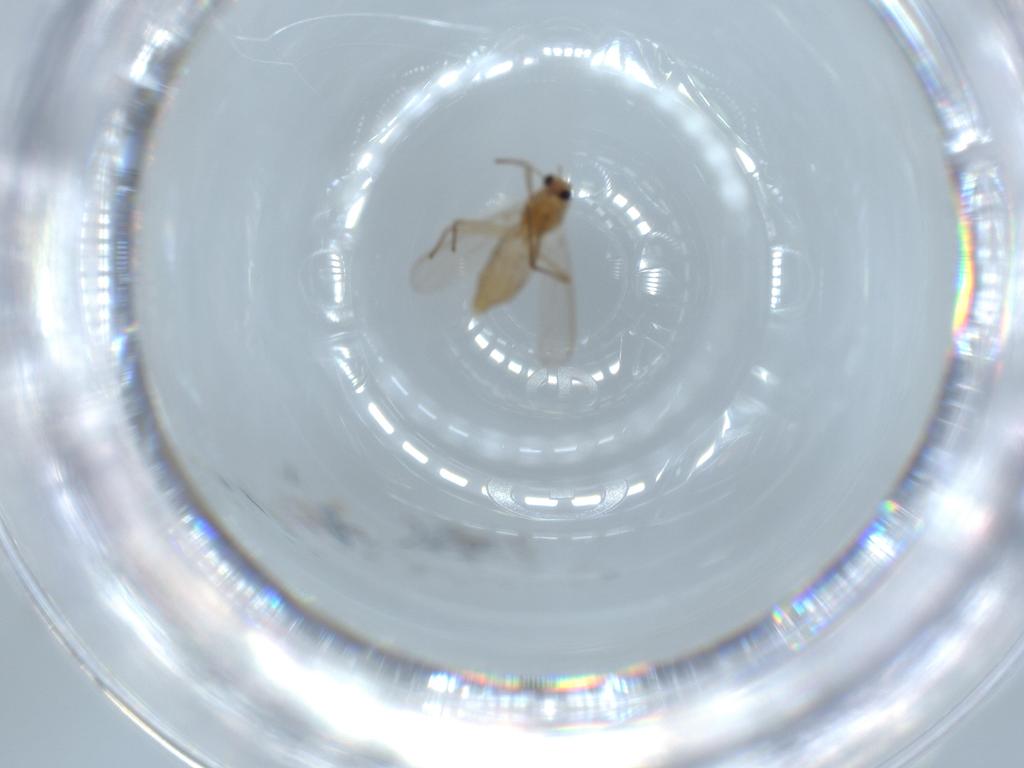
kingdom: Animalia
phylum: Arthropoda
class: Insecta
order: Diptera
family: Chironomidae
